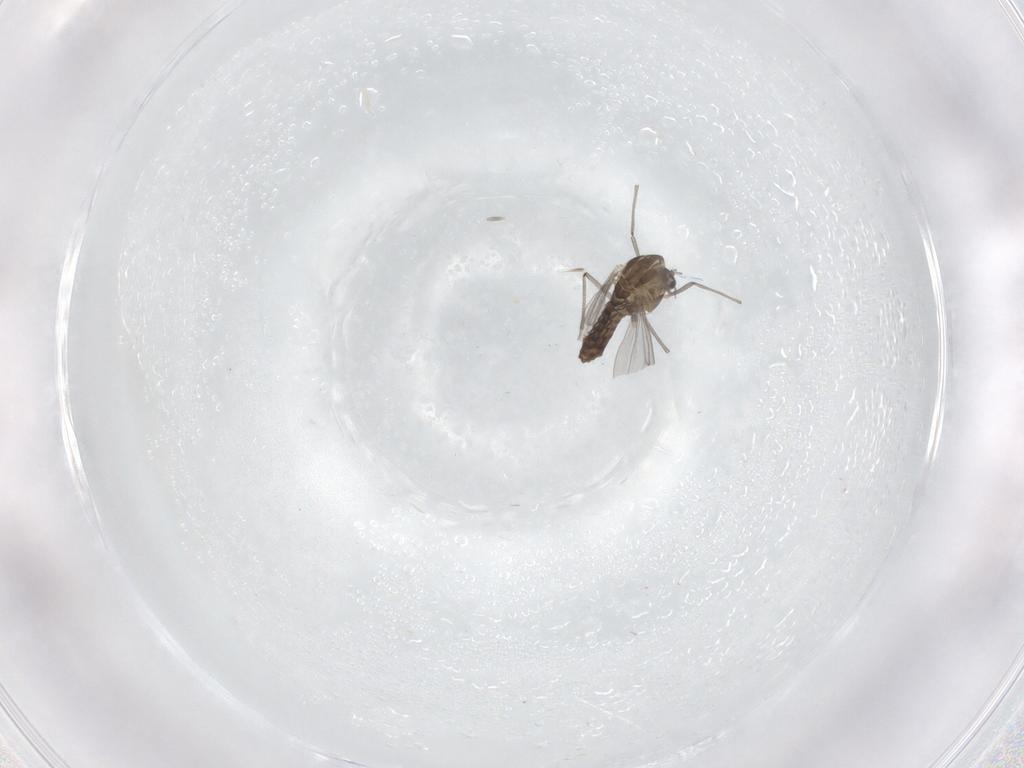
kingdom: Animalia
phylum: Arthropoda
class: Insecta
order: Diptera
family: Chironomidae
